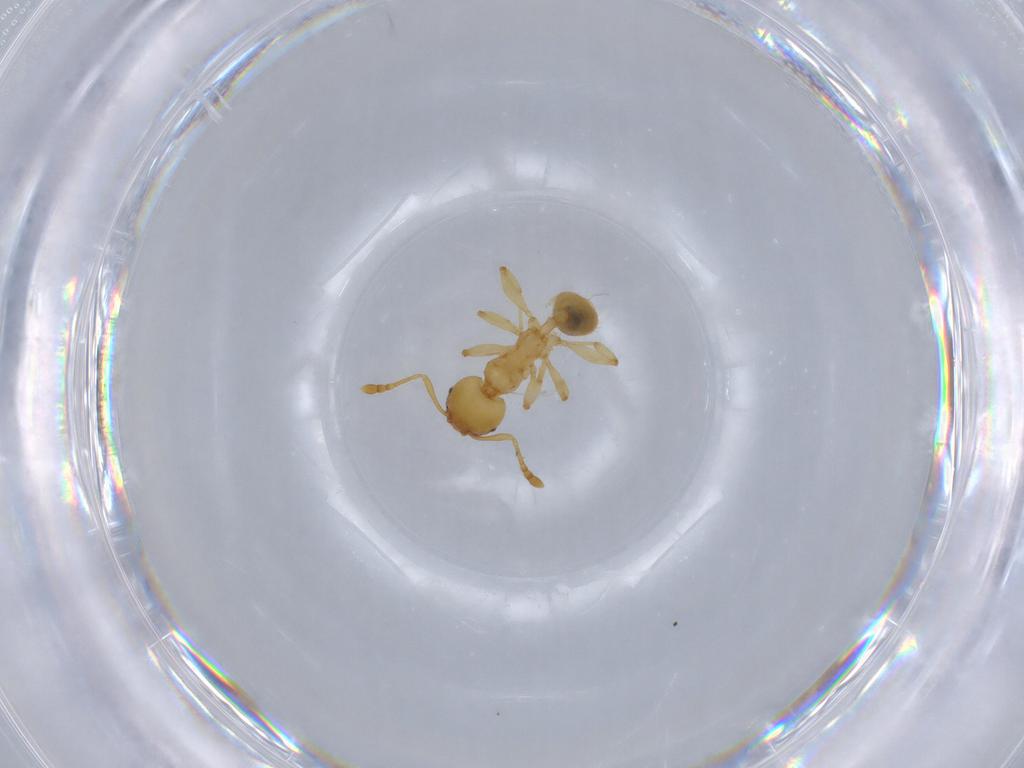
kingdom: Animalia
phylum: Arthropoda
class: Insecta
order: Hymenoptera
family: Formicidae
